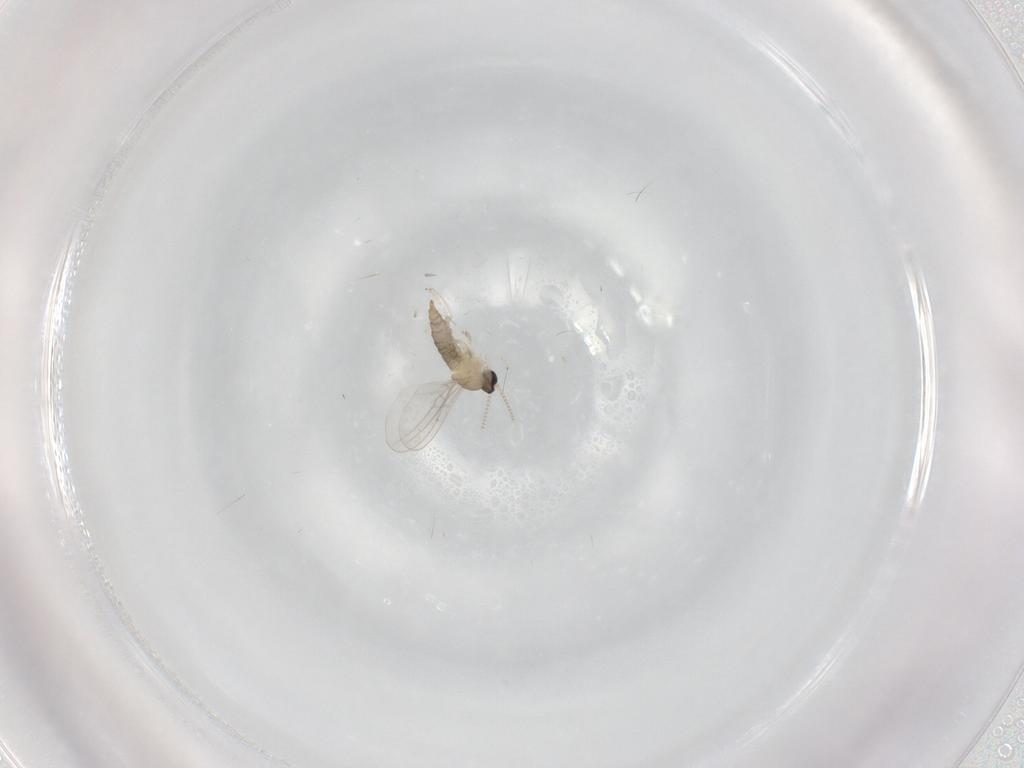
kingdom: Animalia
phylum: Arthropoda
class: Insecta
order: Diptera
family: Cecidomyiidae
